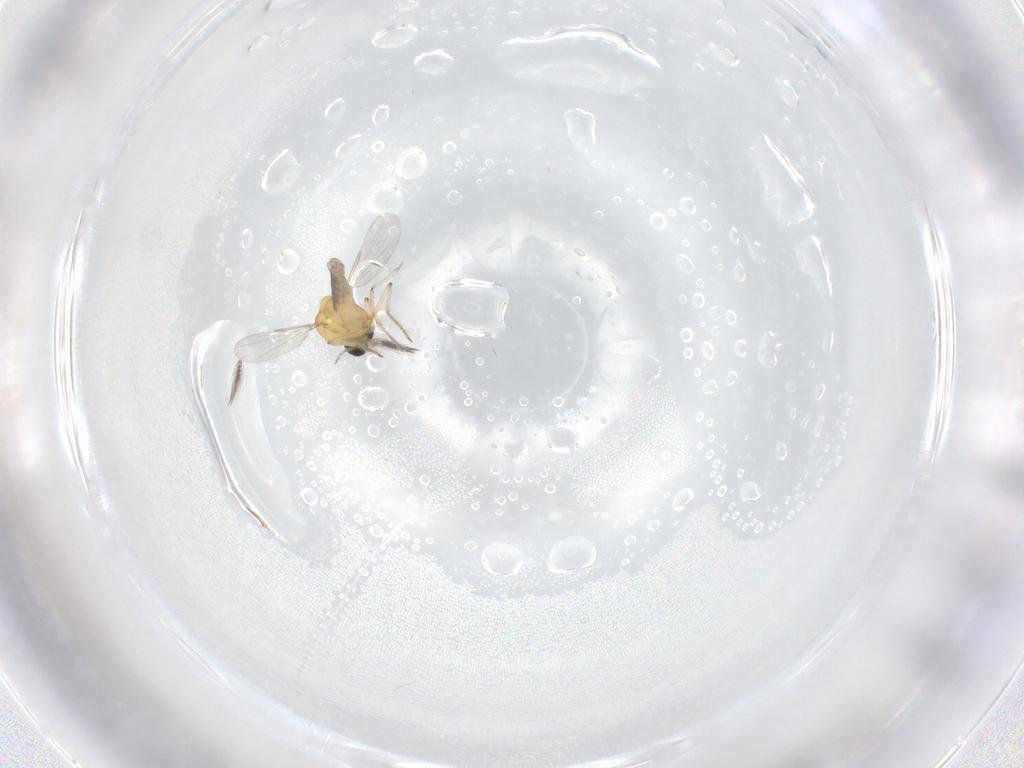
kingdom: Animalia
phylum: Arthropoda
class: Insecta
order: Diptera
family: Ceratopogonidae
